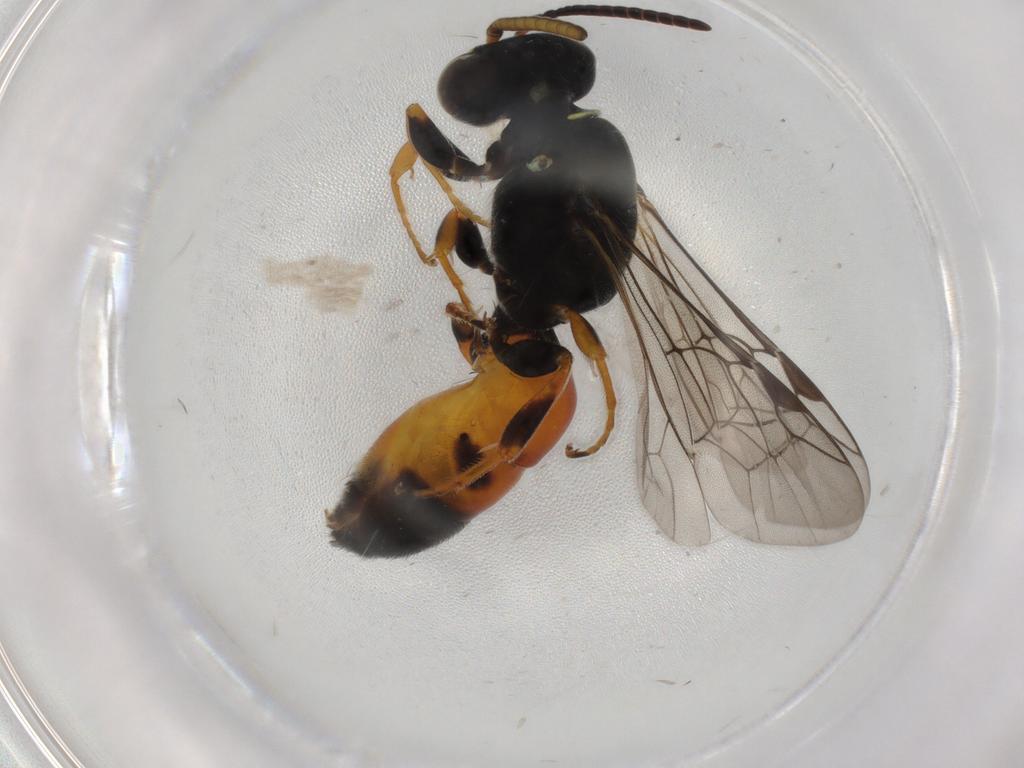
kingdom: Animalia
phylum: Arthropoda
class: Insecta
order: Hymenoptera
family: Colletidae
